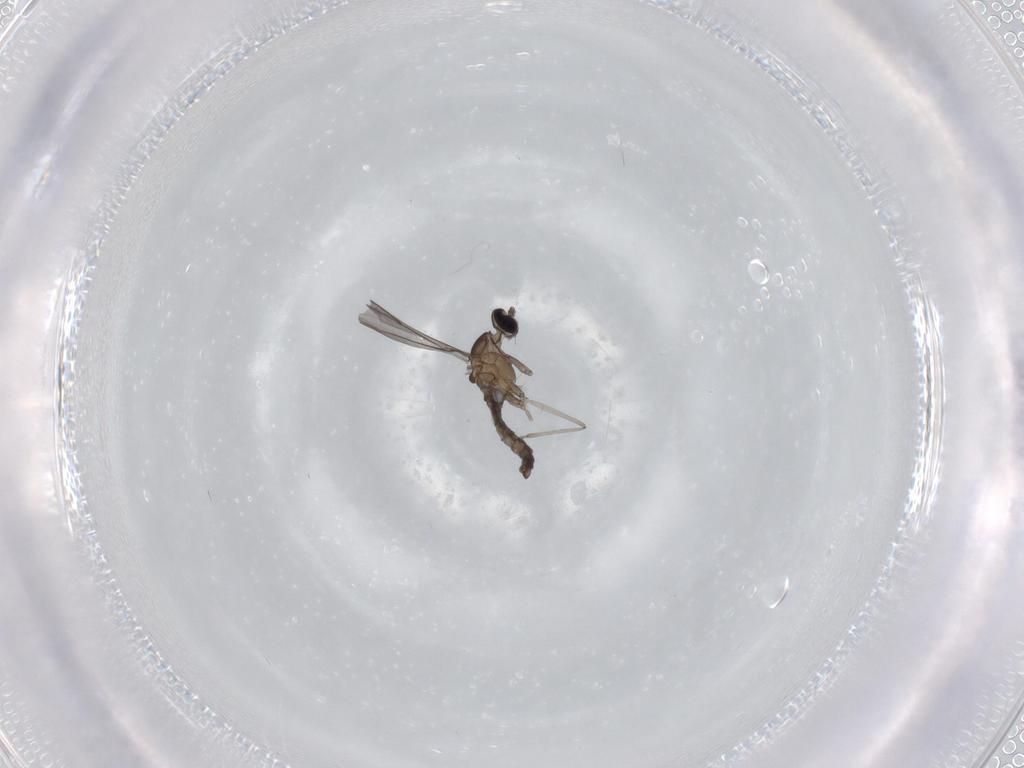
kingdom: Animalia
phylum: Arthropoda
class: Insecta
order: Diptera
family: Cecidomyiidae
